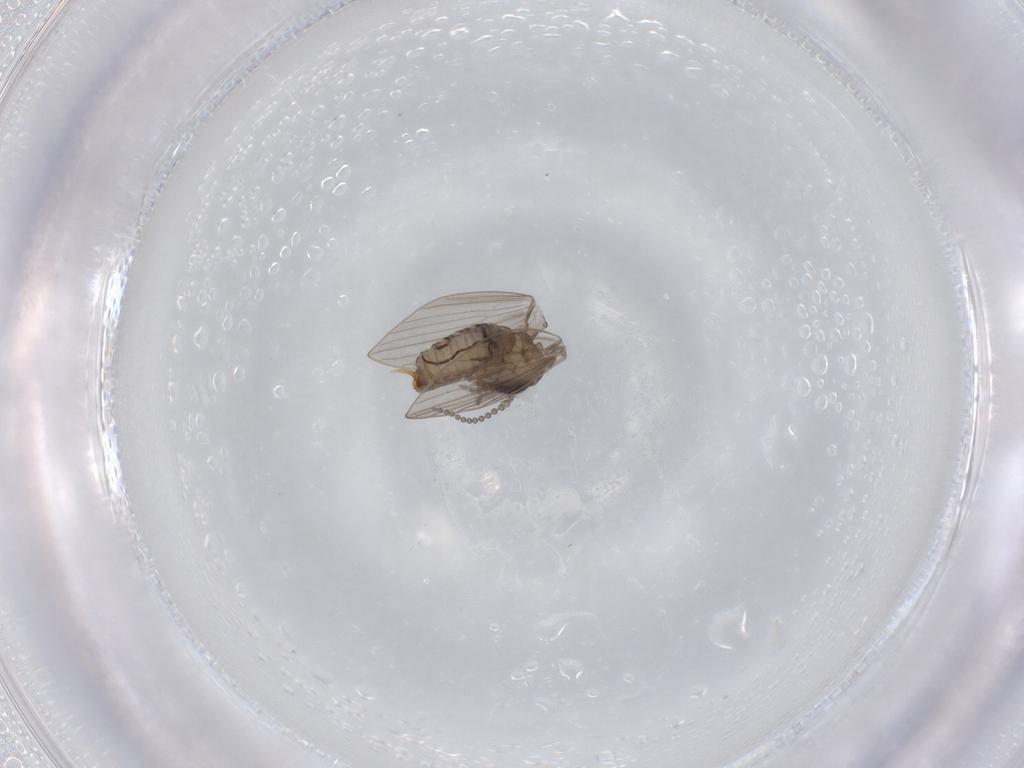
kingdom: Animalia
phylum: Arthropoda
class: Insecta
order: Diptera
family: Psychodidae
